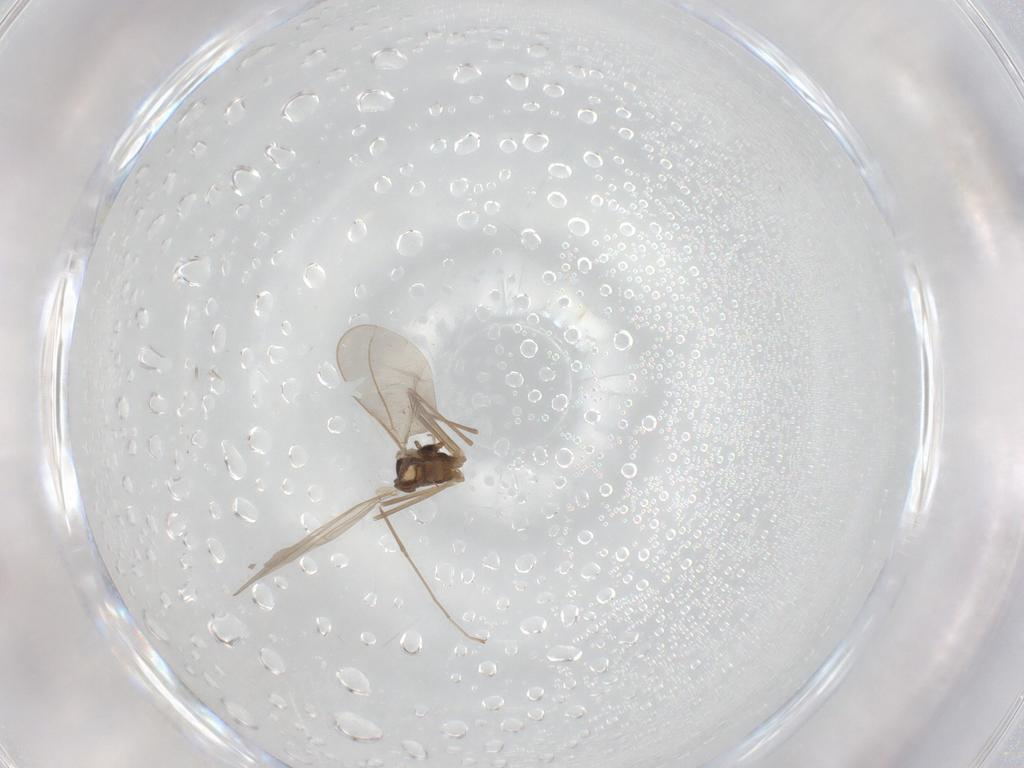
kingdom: Animalia
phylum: Arthropoda
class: Insecta
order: Diptera
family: Cecidomyiidae
